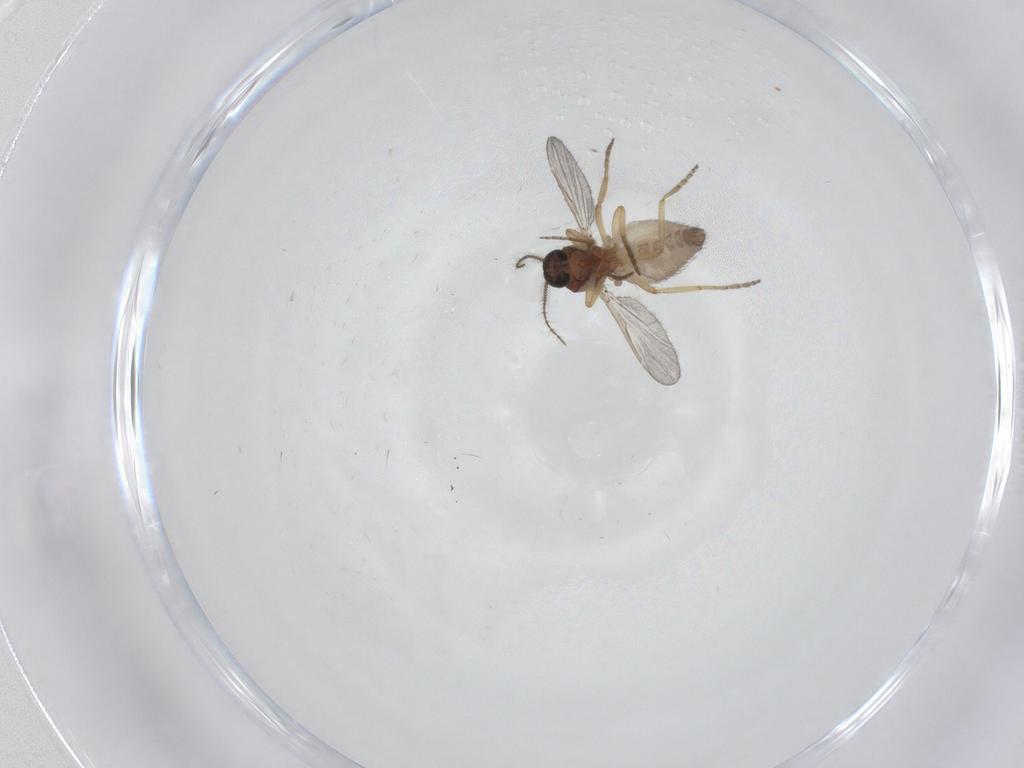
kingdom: Animalia
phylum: Arthropoda
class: Insecta
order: Diptera
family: Ceratopogonidae
